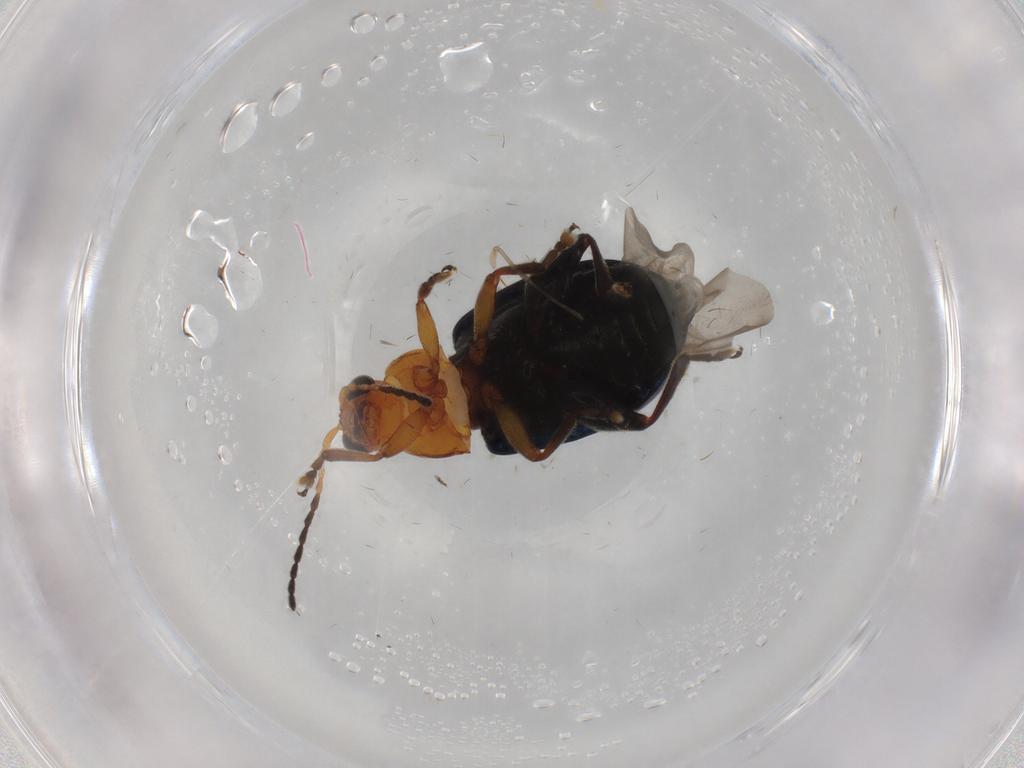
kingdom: Animalia
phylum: Arthropoda
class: Insecta
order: Coleoptera
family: Chrysomelidae
